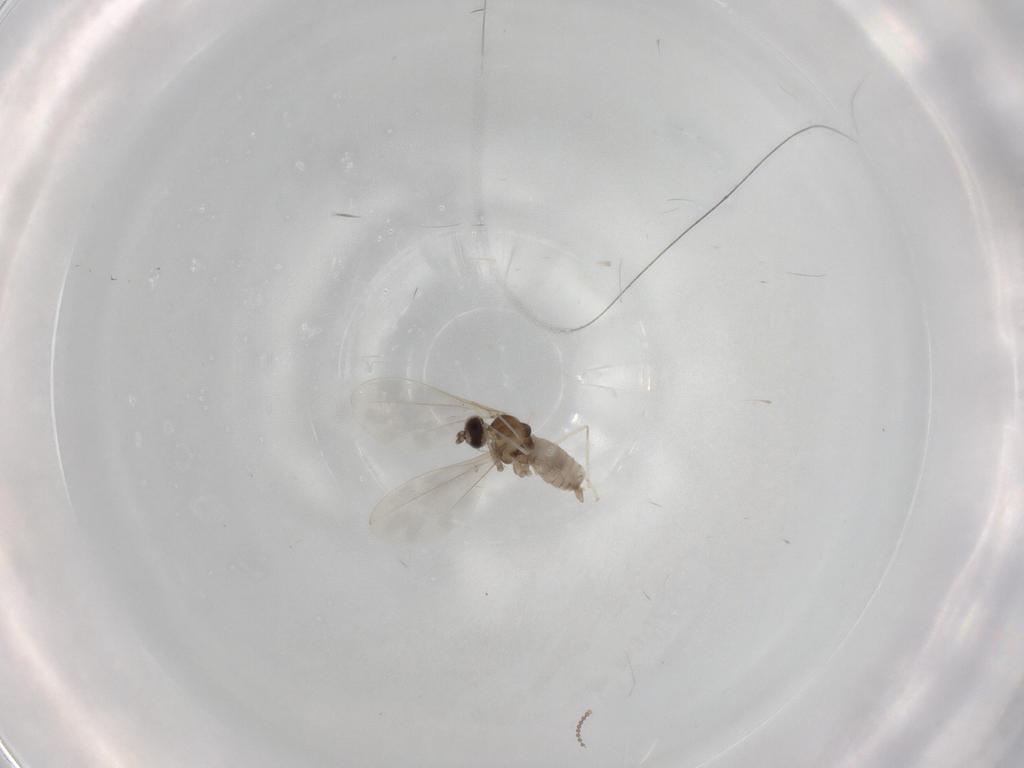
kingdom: Animalia
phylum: Arthropoda
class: Insecta
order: Diptera
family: Cecidomyiidae
